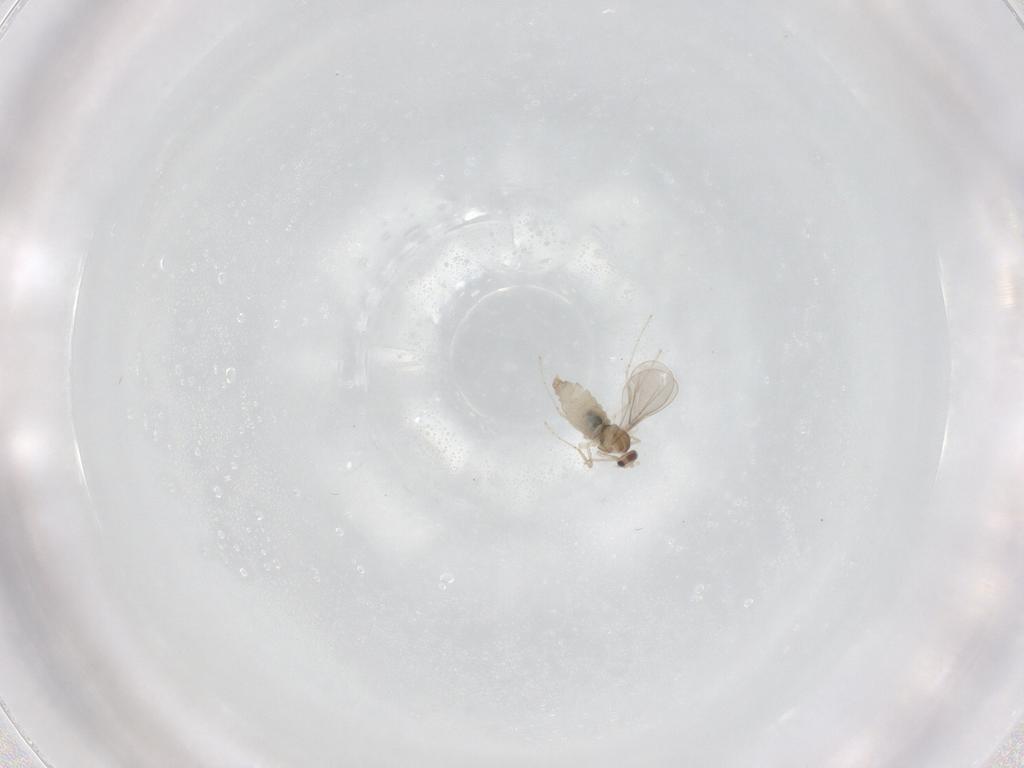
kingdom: Animalia
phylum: Arthropoda
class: Insecta
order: Diptera
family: Cecidomyiidae
